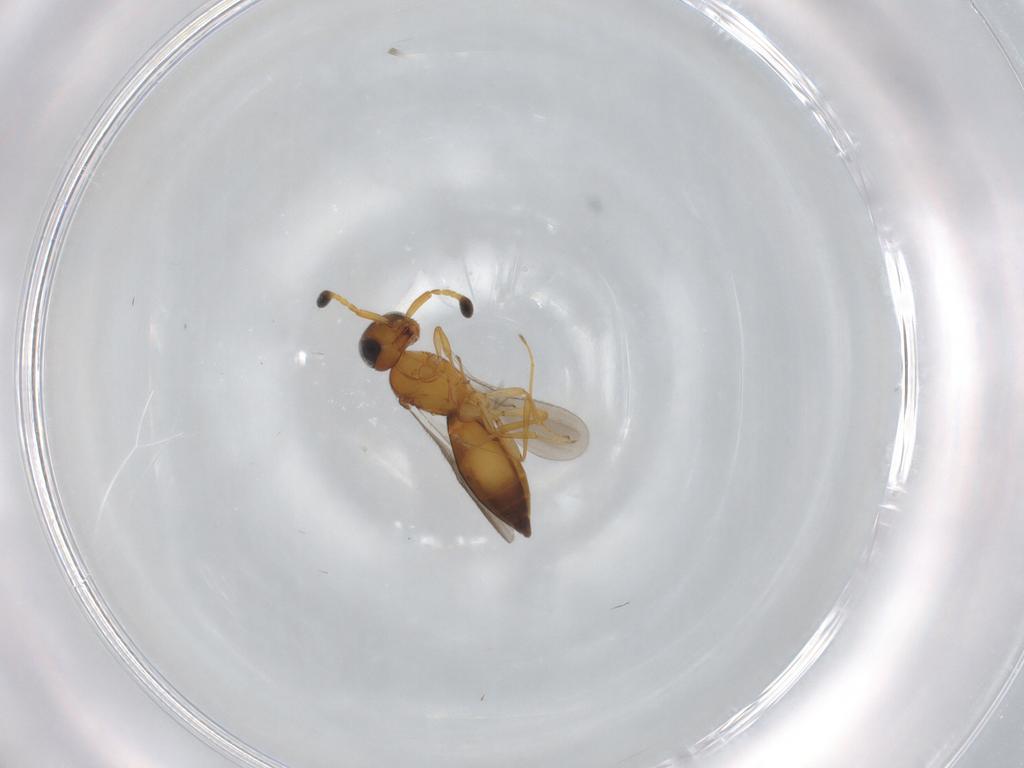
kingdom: Animalia
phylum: Arthropoda
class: Insecta
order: Hymenoptera
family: Scelionidae
